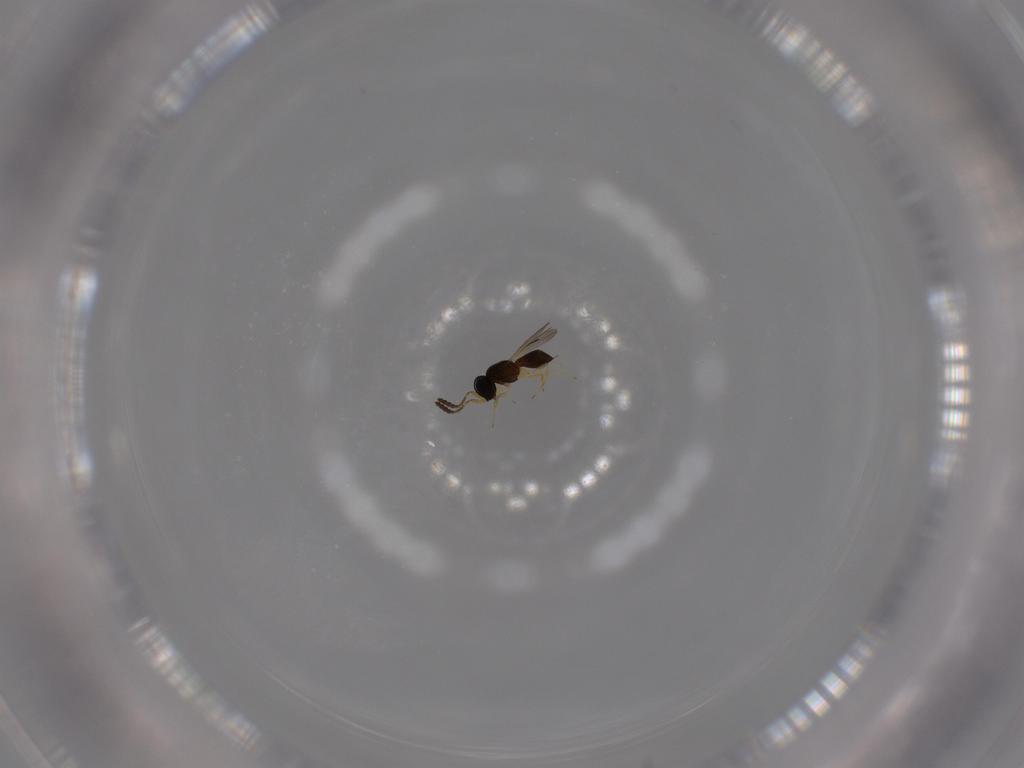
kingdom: Animalia
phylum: Arthropoda
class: Insecta
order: Hymenoptera
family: Scelionidae
